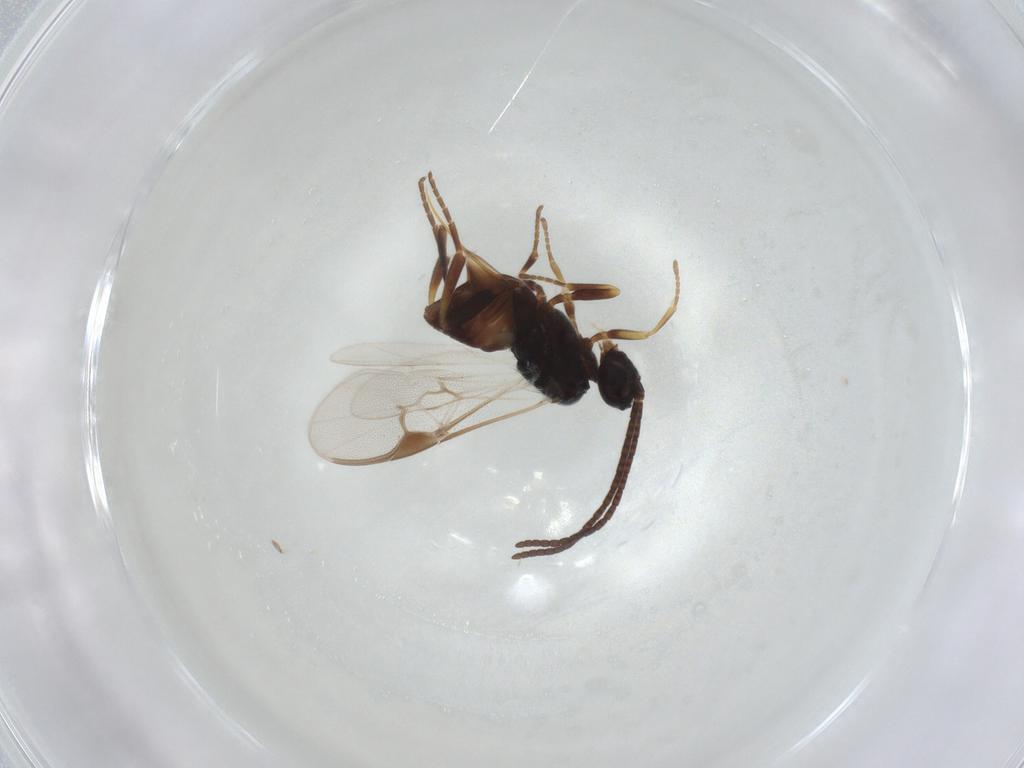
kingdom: Animalia
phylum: Arthropoda
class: Insecta
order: Hymenoptera
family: Braconidae
